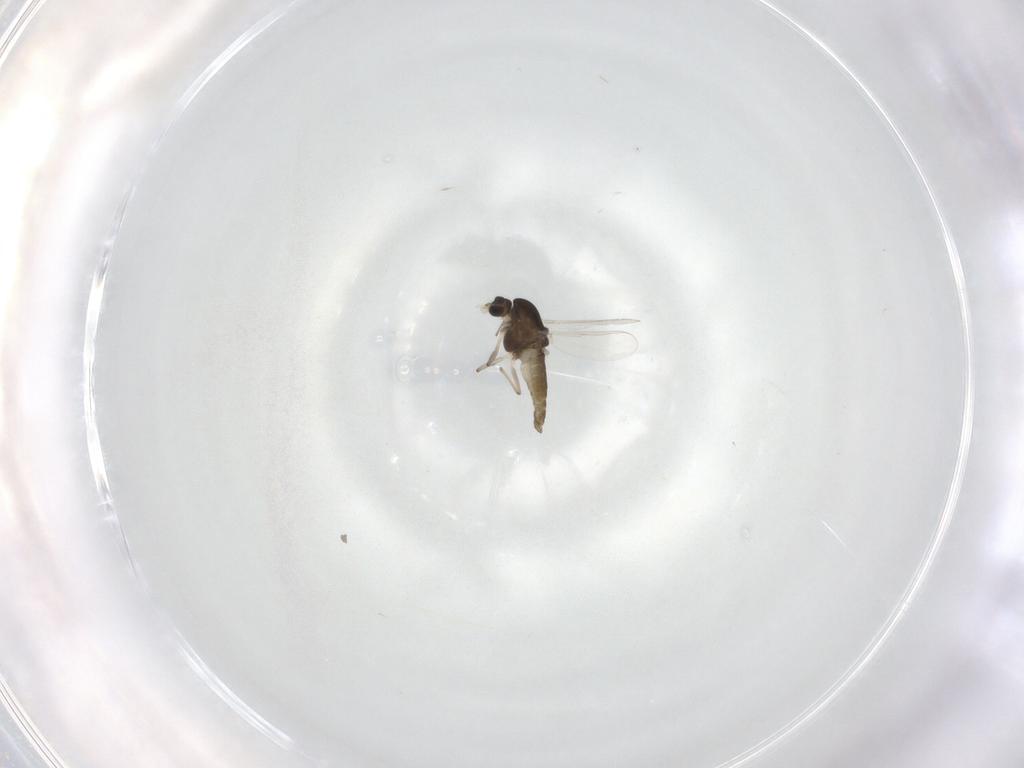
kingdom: Animalia
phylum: Arthropoda
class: Insecta
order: Diptera
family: Chironomidae
